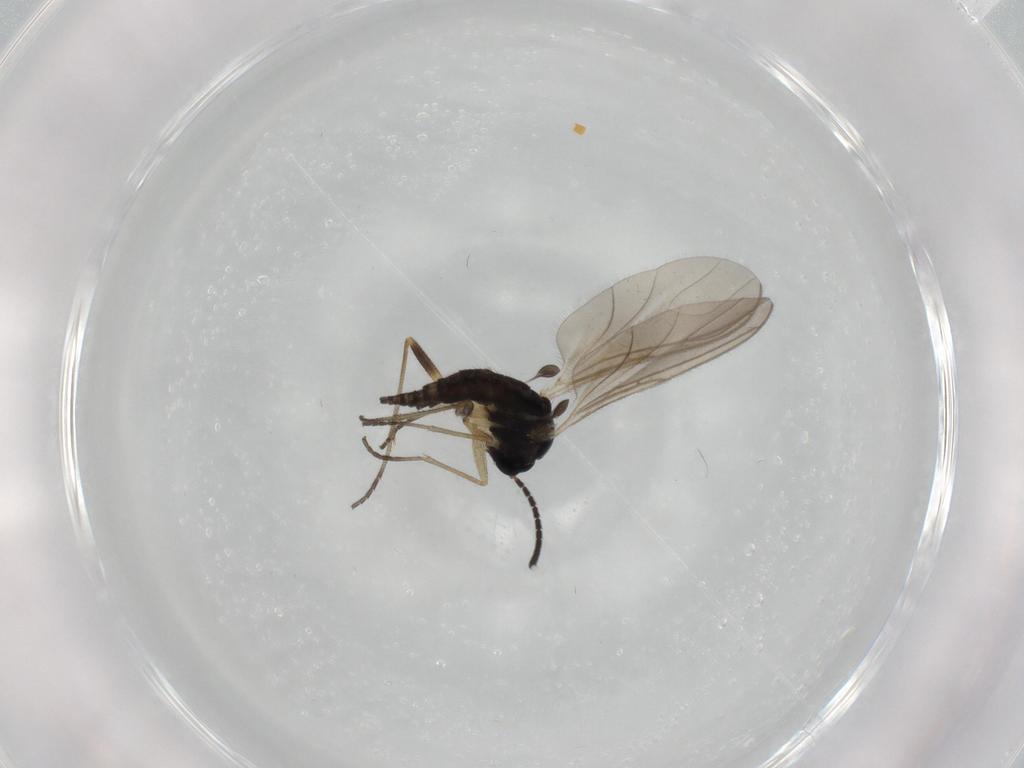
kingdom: Animalia
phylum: Arthropoda
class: Insecta
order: Diptera
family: Sciaridae
